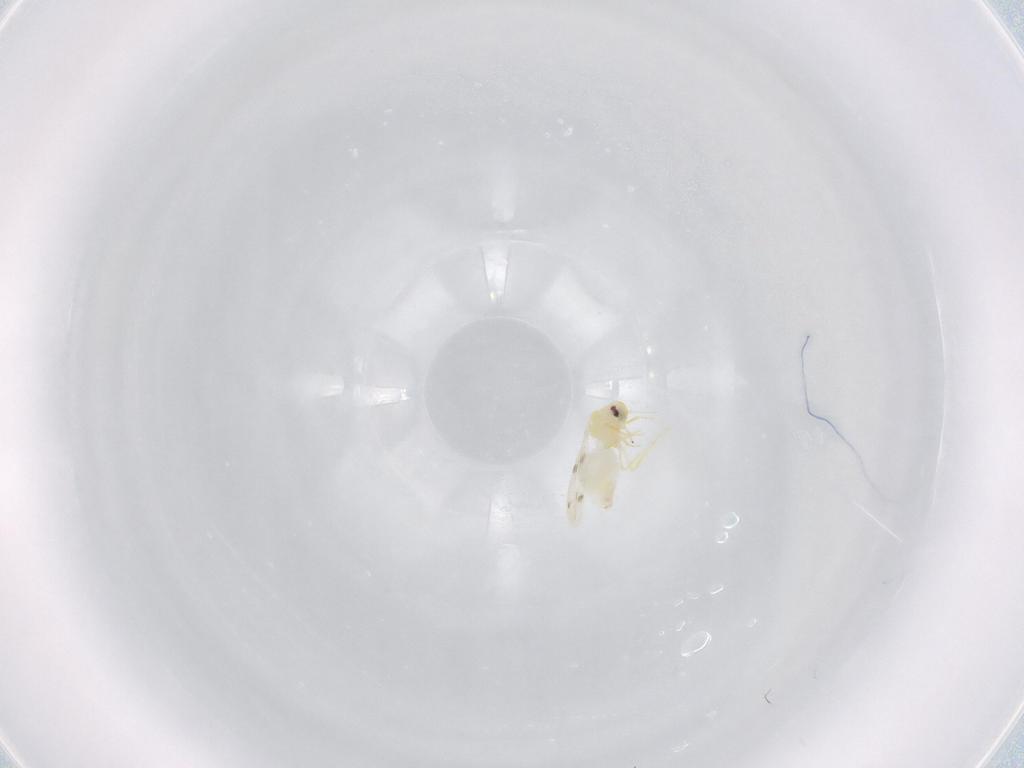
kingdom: Animalia
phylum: Arthropoda
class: Insecta
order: Hemiptera
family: Aleyrodidae
